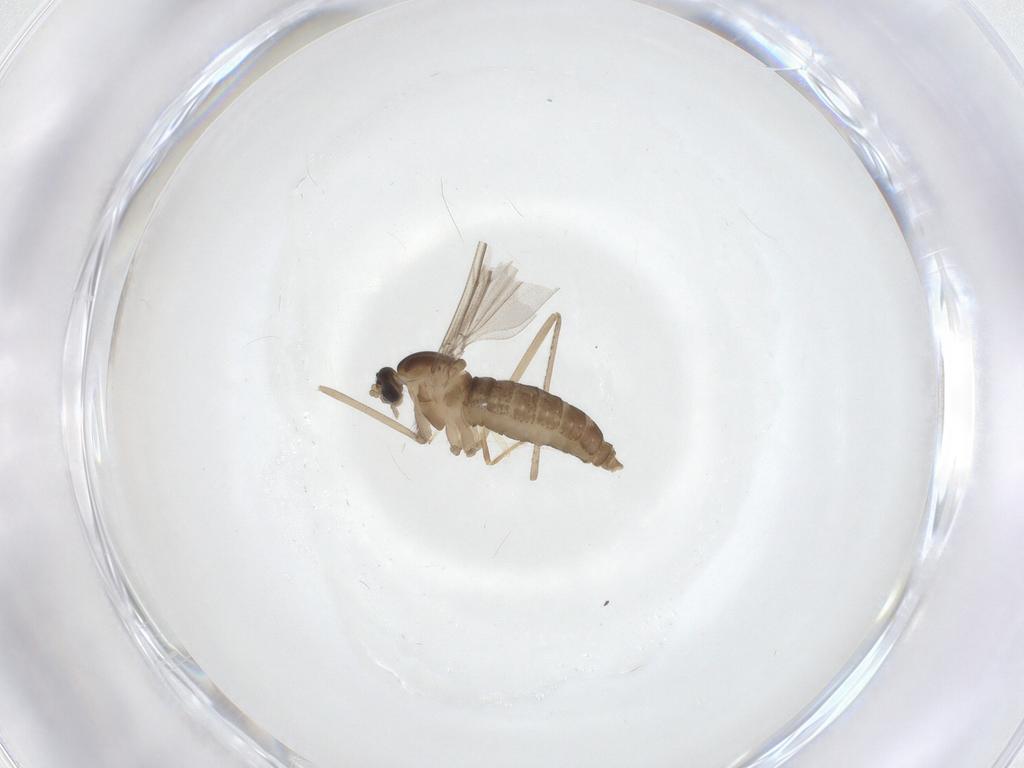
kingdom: Animalia
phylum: Arthropoda
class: Insecta
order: Diptera
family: Cecidomyiidae
